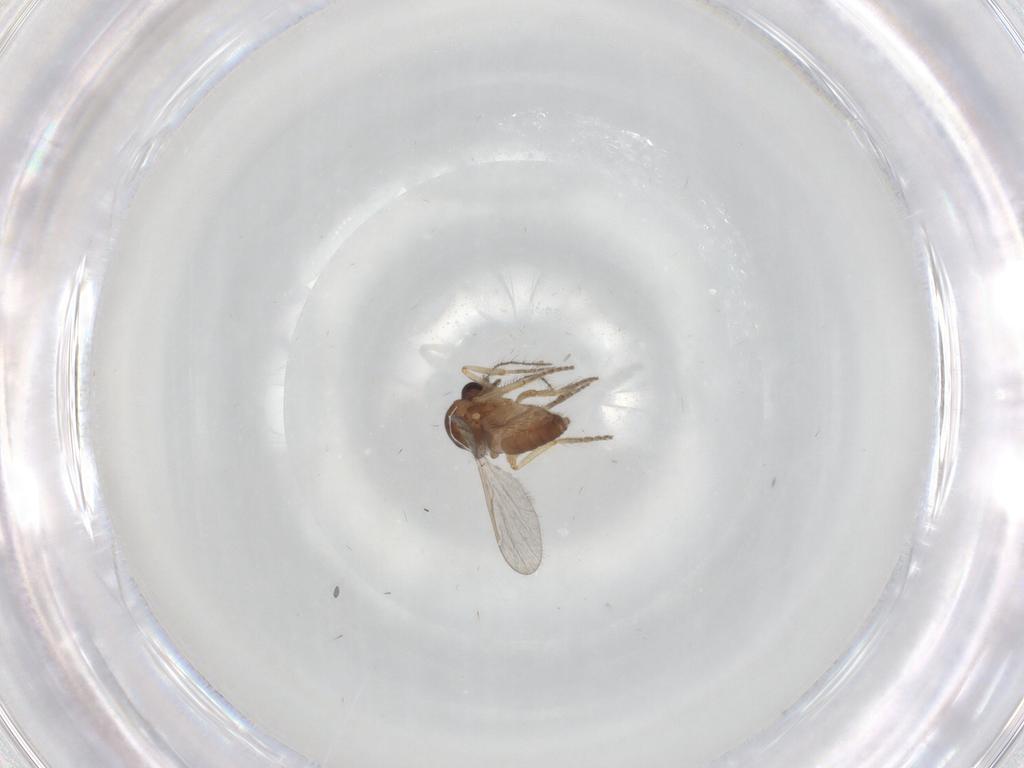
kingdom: Animalia
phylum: Arthropoda
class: Insecta
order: Diptera
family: Ceratopogonidae
